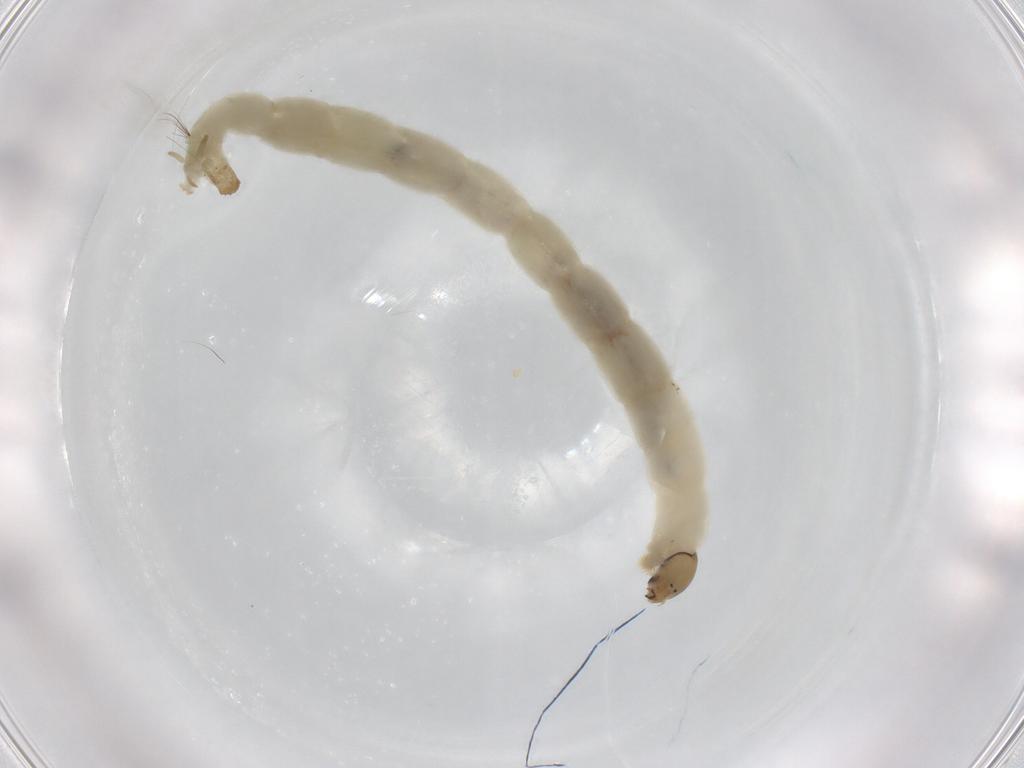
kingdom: Animalia
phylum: Arthropoda
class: Insecta
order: Diptera
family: Chironomidae
